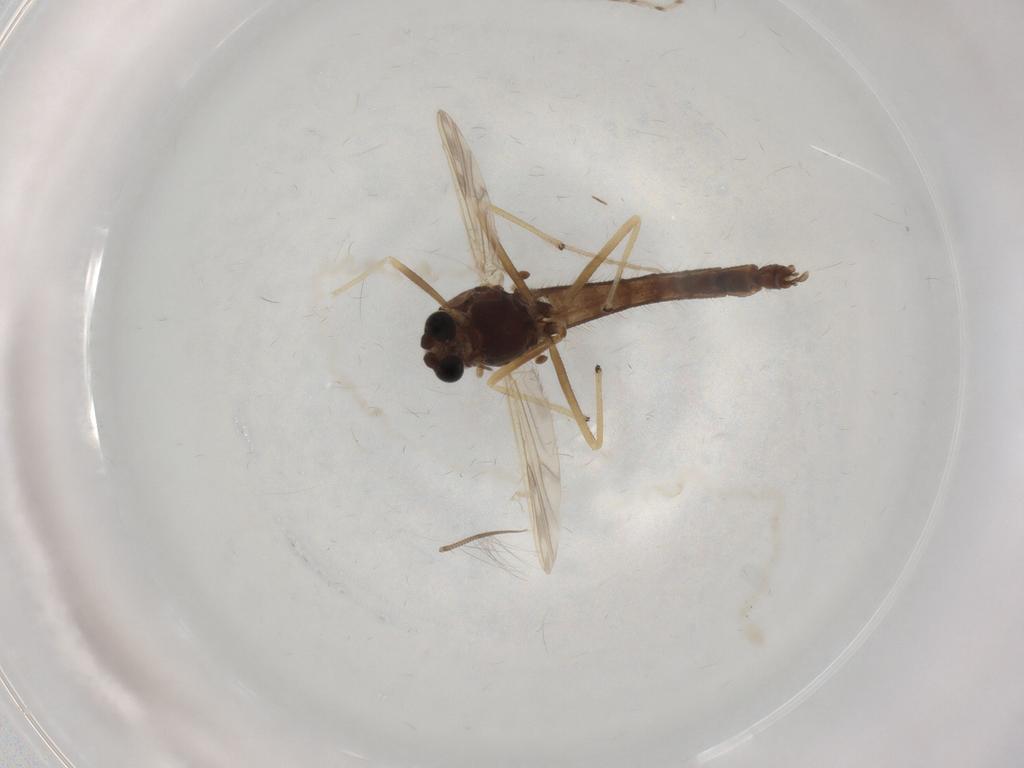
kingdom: Animalia
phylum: Arthropoda
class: Insecta
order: Diptera
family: Chironomidae
